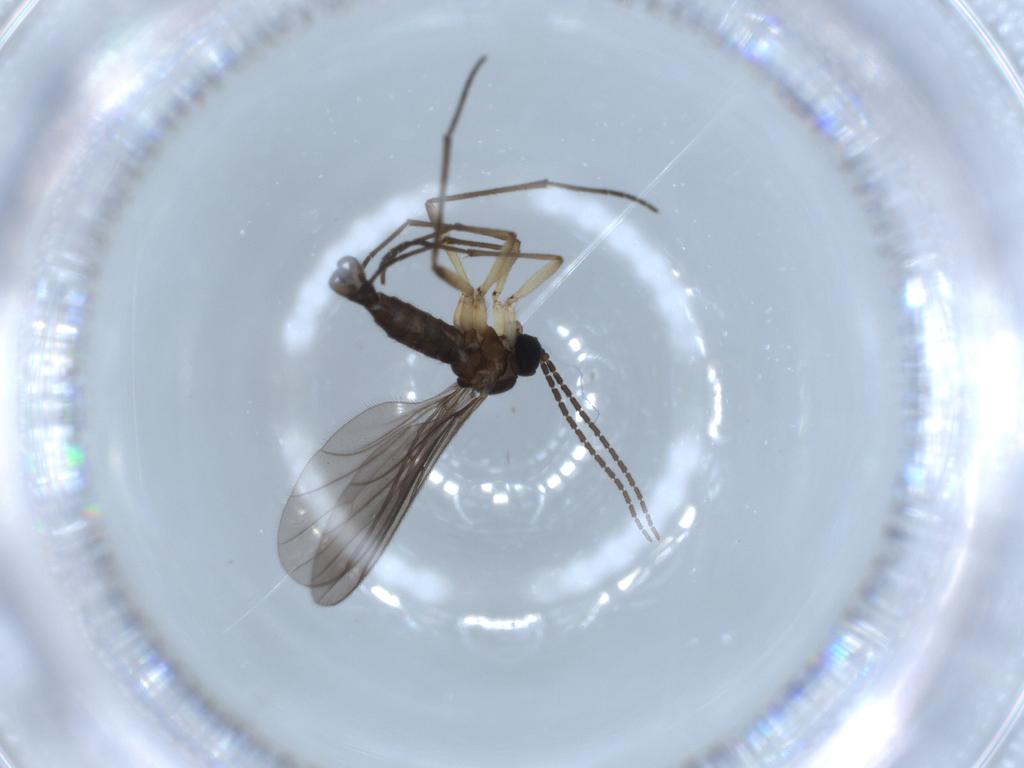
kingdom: Animalia
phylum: Arthropoda
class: Insecta
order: Diptera
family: Sciaridae
